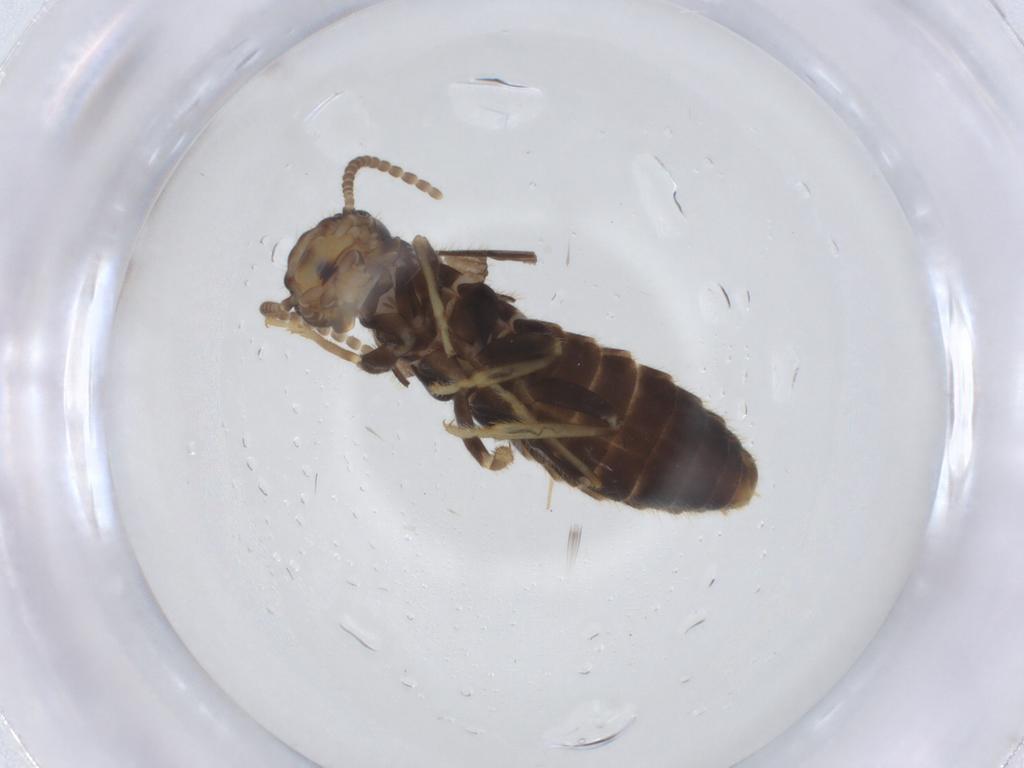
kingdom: Animalia
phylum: Arthropoda
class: Insecta
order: Blattodea
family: Rhinotermitidae
